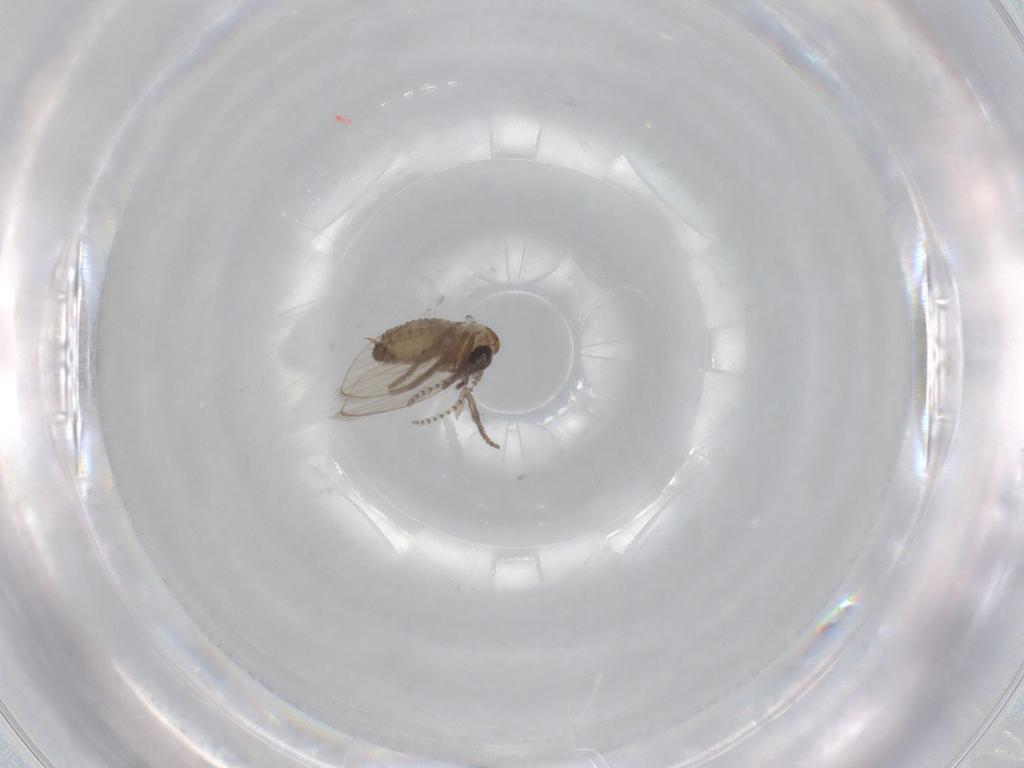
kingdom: Animalia
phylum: Arthropoda
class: Insecta
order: Diptera
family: Psychodidae
